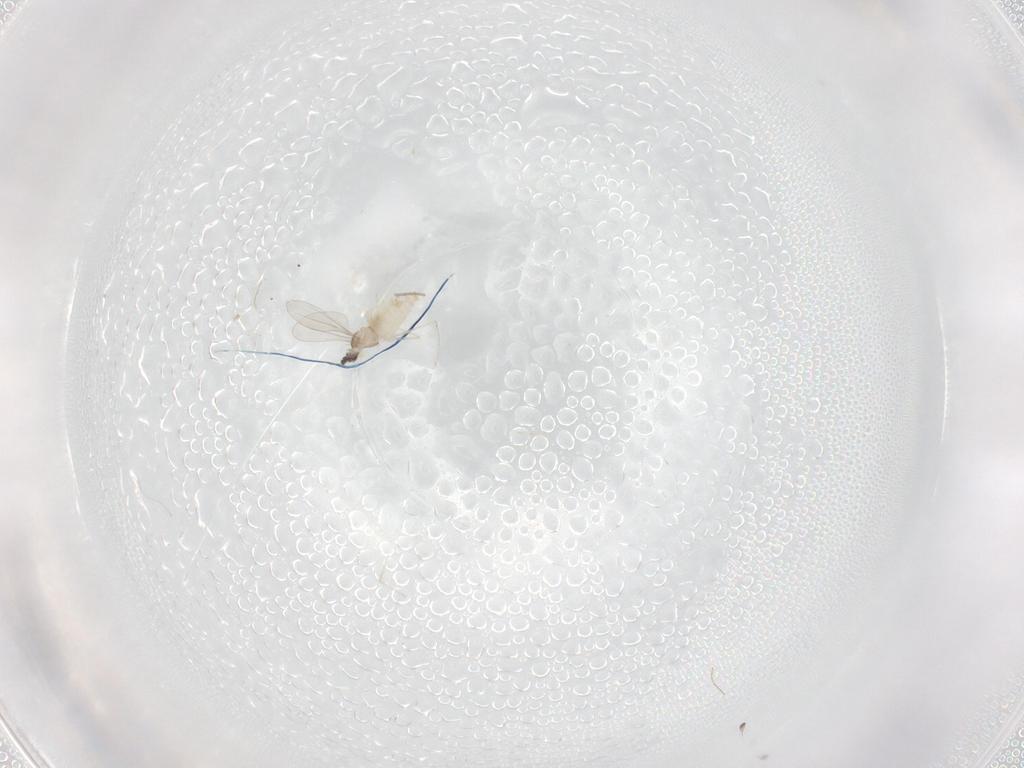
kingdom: Animalia
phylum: Arthropoda
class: Insecta
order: Diptera
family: Cecidomyiidae
